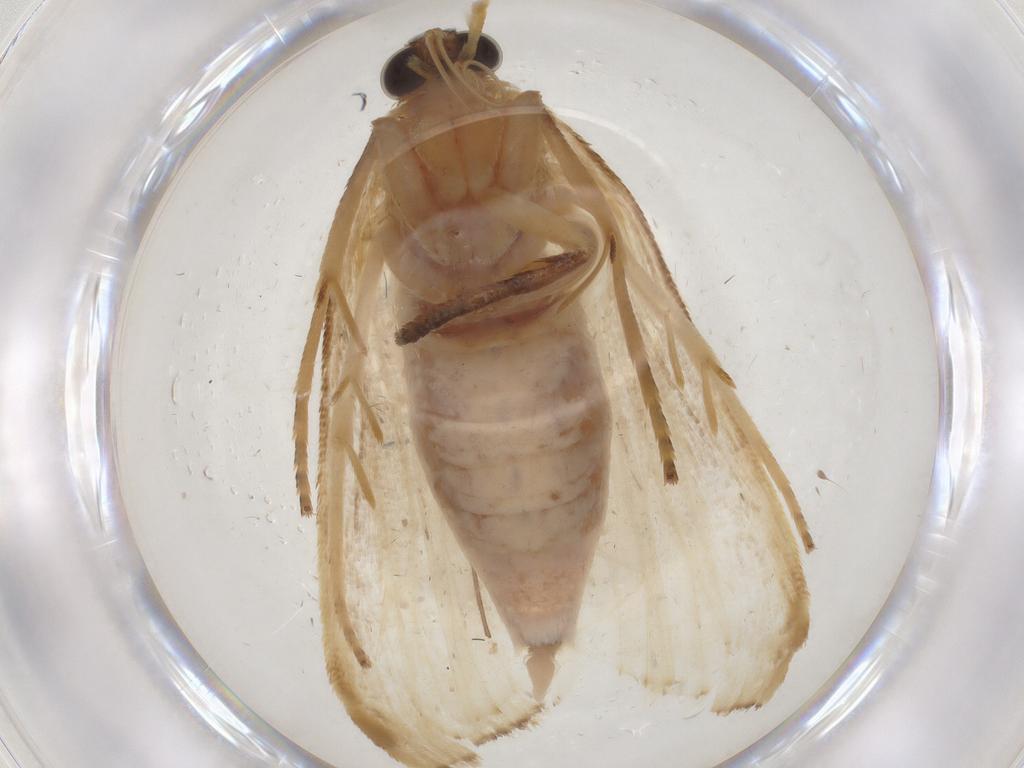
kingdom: Animalia
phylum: Arthropoda
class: Insecta
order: Lepidoptera
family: Crambidae
